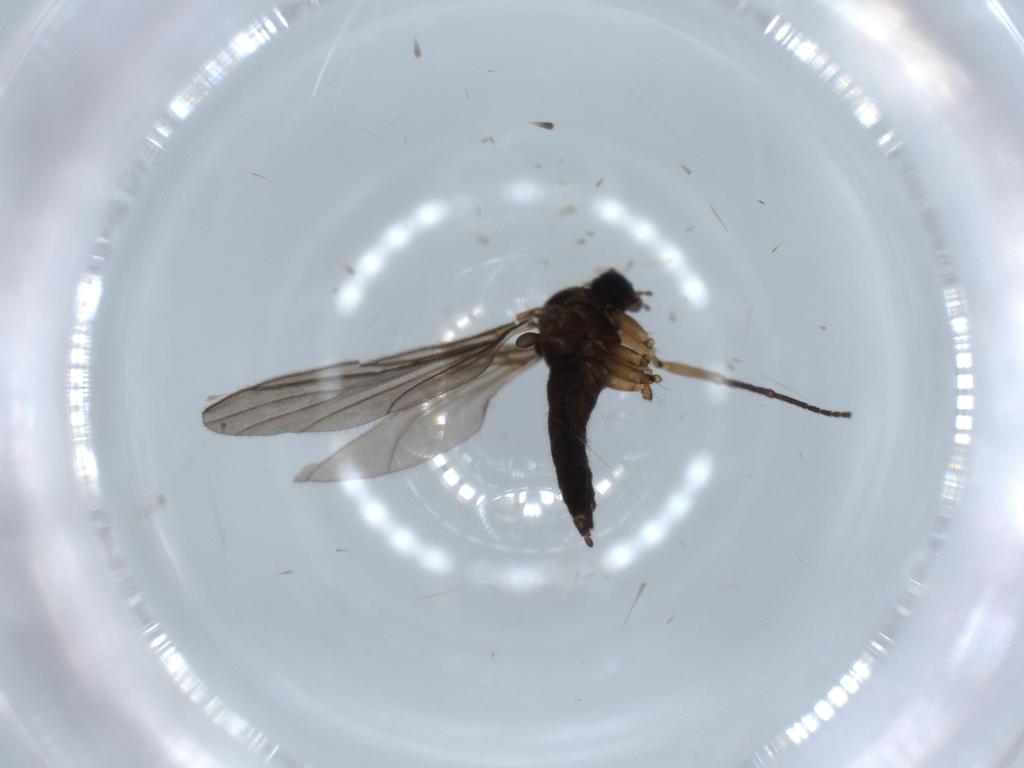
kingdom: Animalia
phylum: Arthropoda
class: Insecta
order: Diptera
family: Sciaridae
